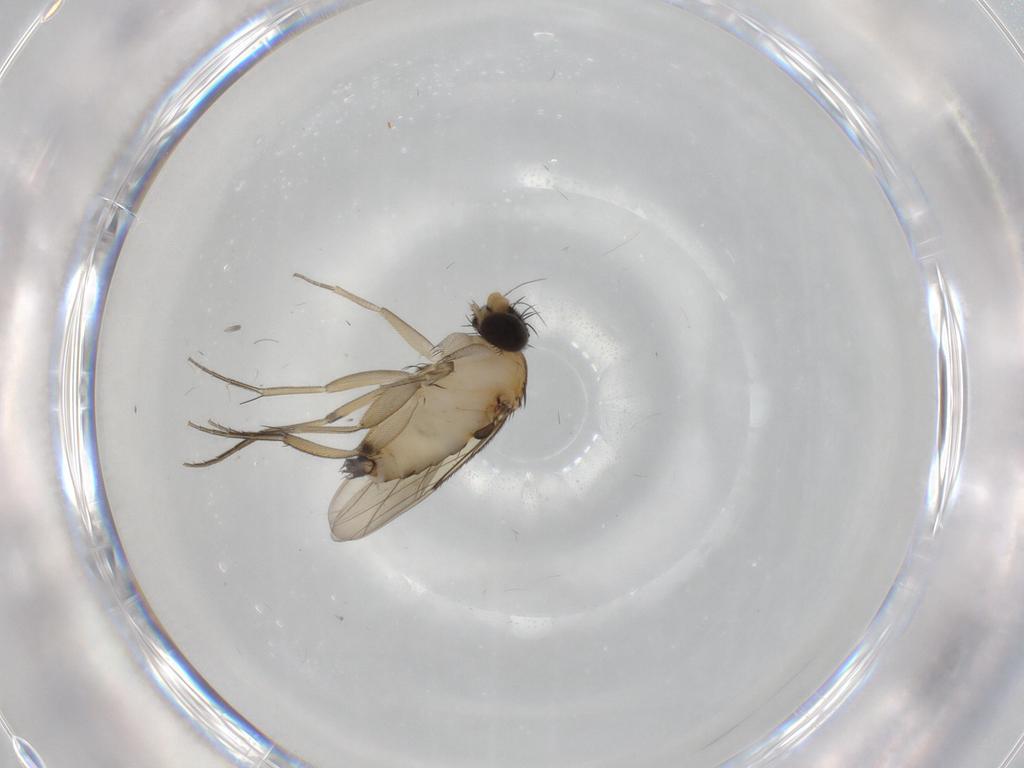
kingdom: Animalia
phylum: Arthropoda
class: Insecta
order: Diptera
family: Phoridae
